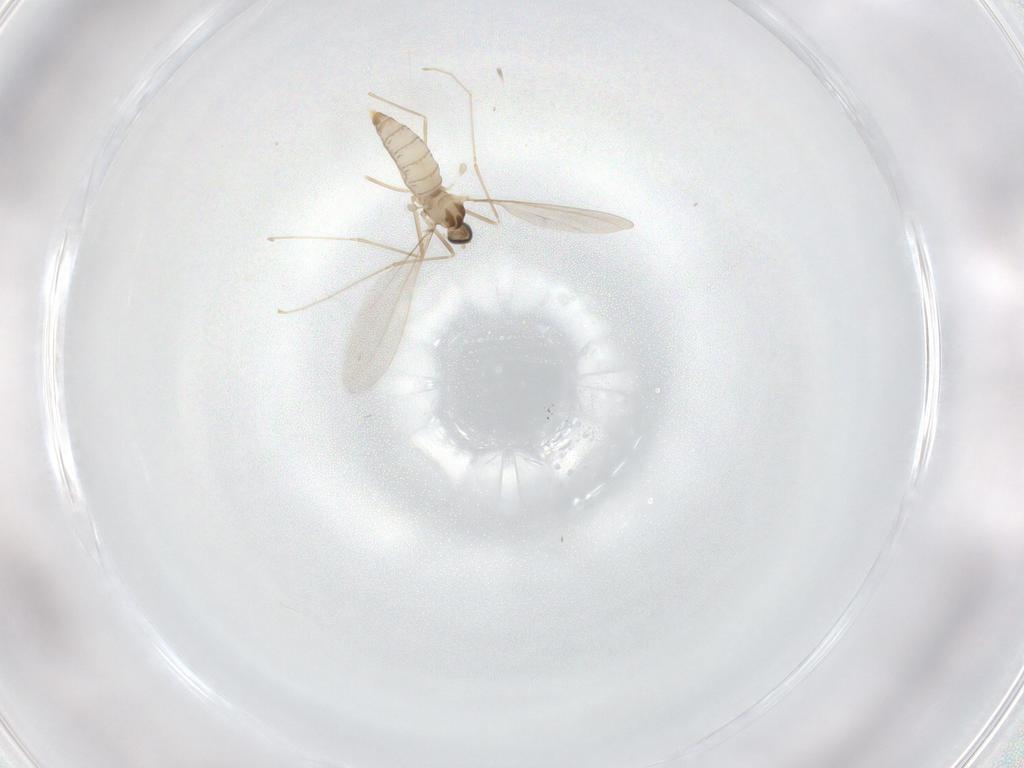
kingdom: Animalia
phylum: Arthropoda
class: Insecta
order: Diptera
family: Cecidomyiidae
